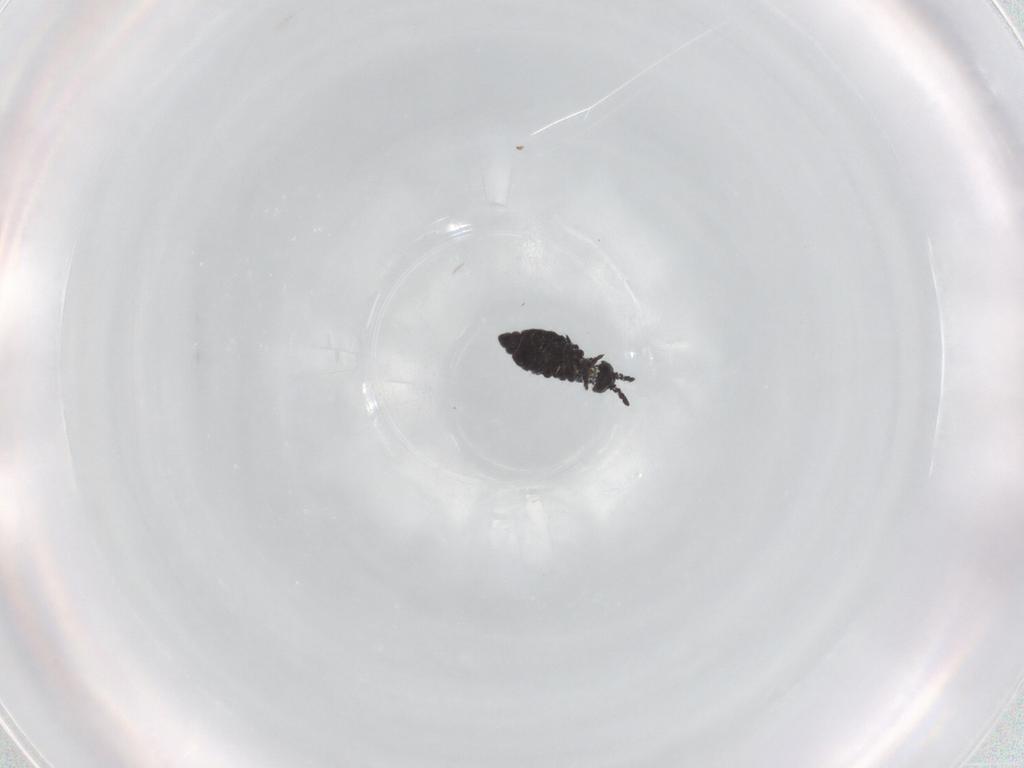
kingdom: Animalia
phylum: Arthropoda
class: Collembola
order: Poduromorpha
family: Hypogastruridae
